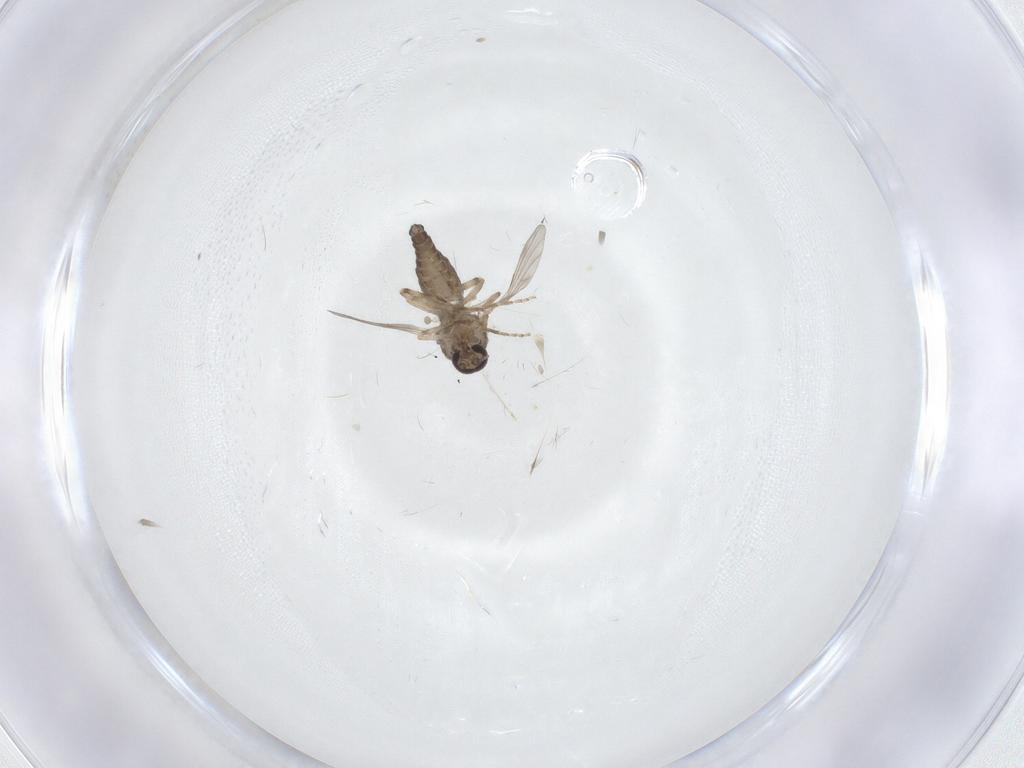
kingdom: Animalia
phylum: Arthropoda
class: Insecta
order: Diptera
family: Ceratopogonidae
